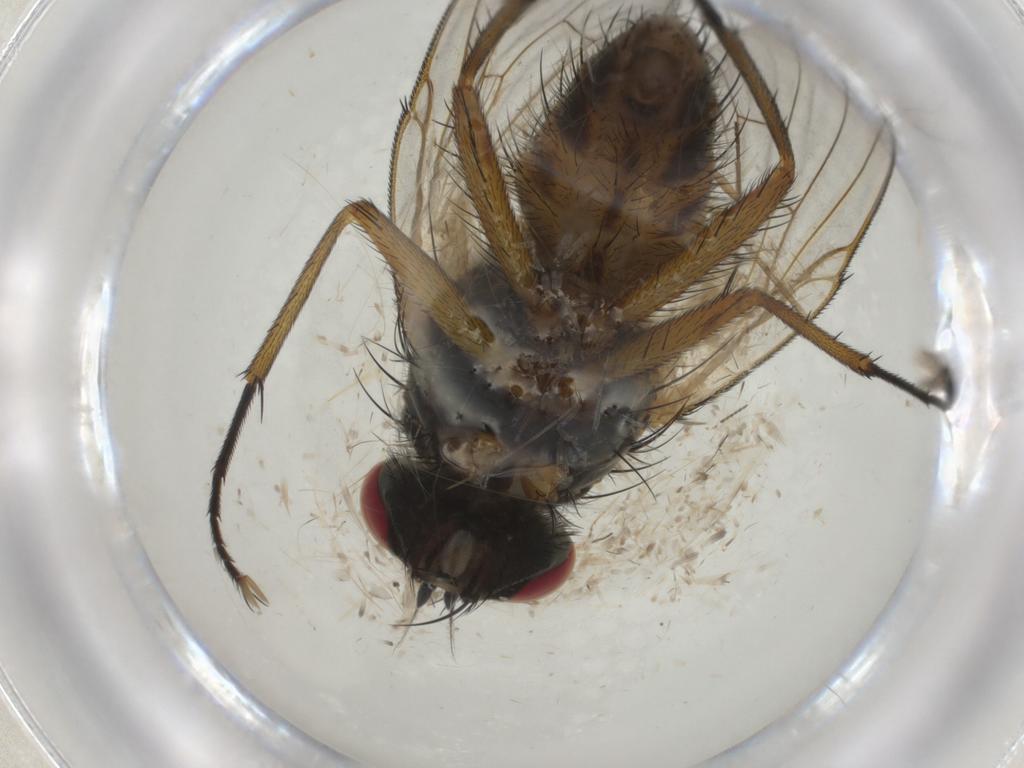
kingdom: Animalia
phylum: Arthropoda
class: Insecta
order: Diptera
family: Muscidae
